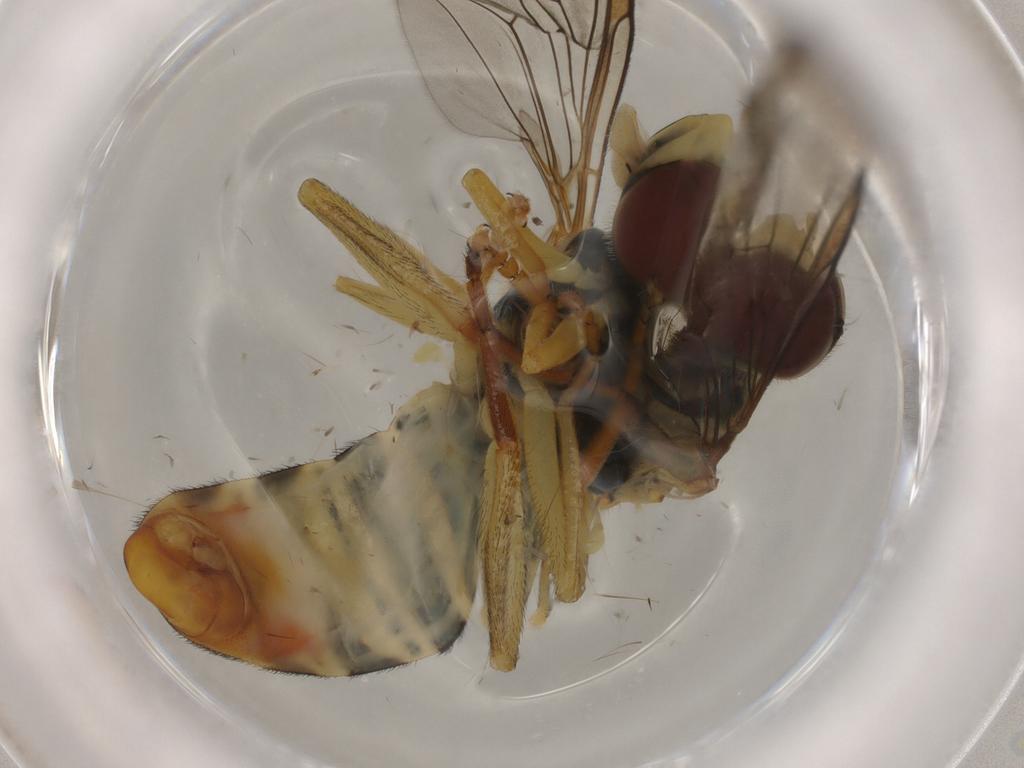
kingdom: Animalia
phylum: Arthropoda
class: Insecta
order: Diptera
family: Syrphidae
